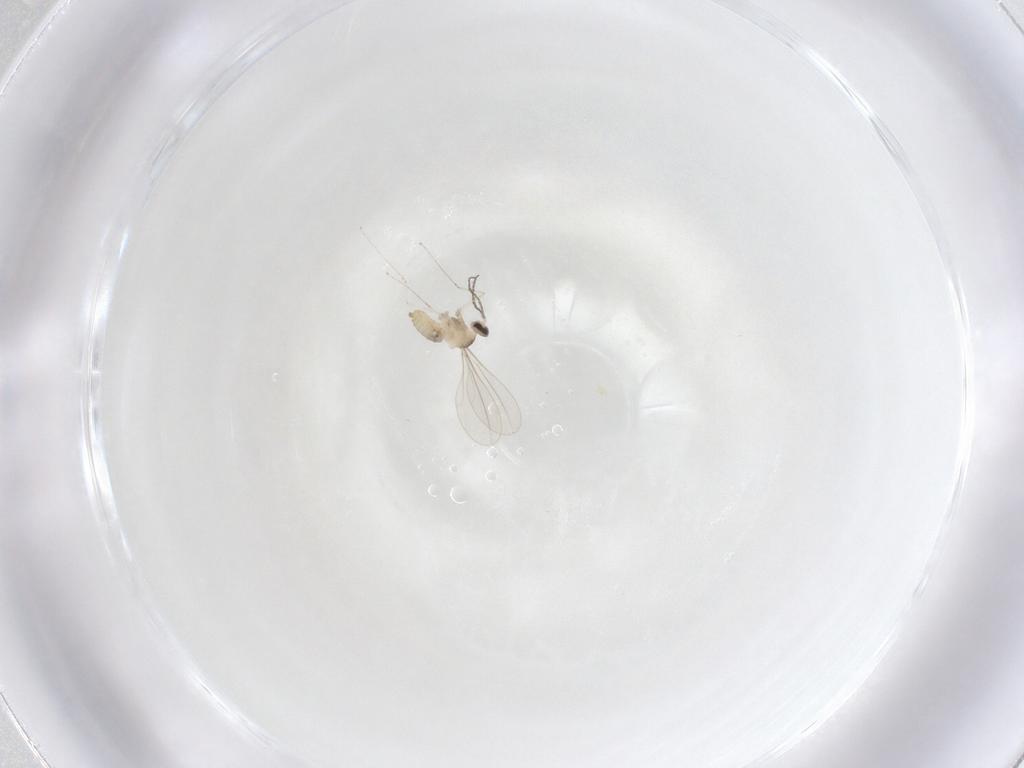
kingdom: Animalia
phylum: Arthropoda
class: Insecta
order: Diptera
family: Cecidomyiidae
